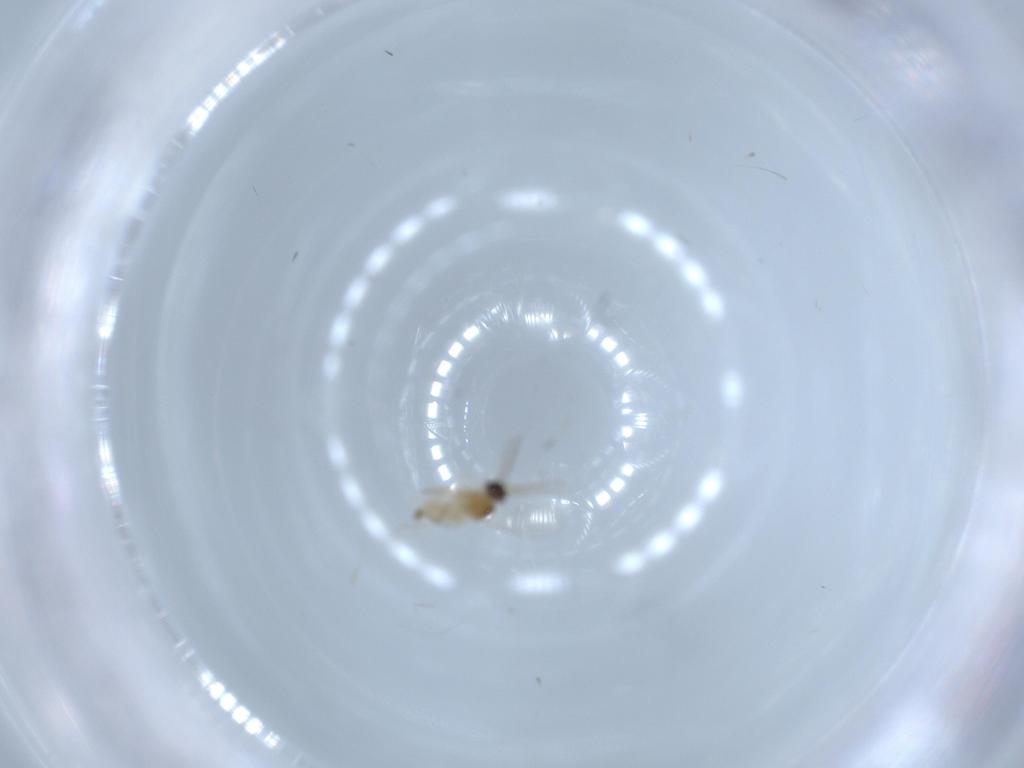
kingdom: Animalia
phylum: Arthropoda
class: Insecta
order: Diptera
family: Cecidomyiidae
